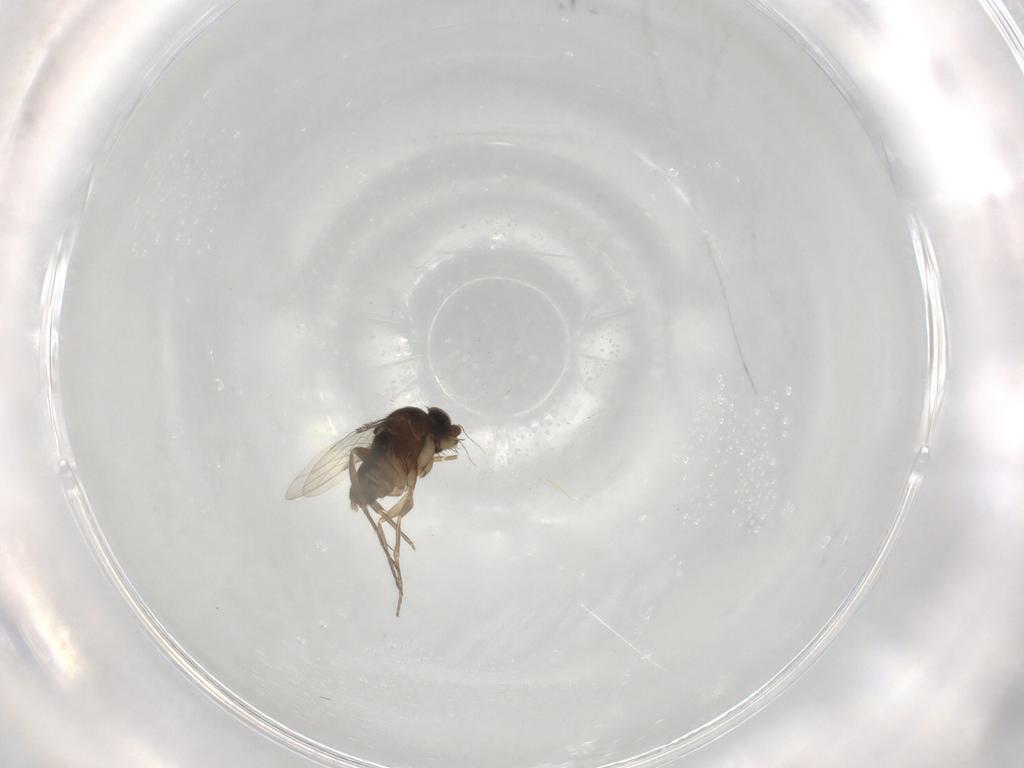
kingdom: Animalia
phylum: Arthropoda
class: Insecta
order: Diptera
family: Phoridae
